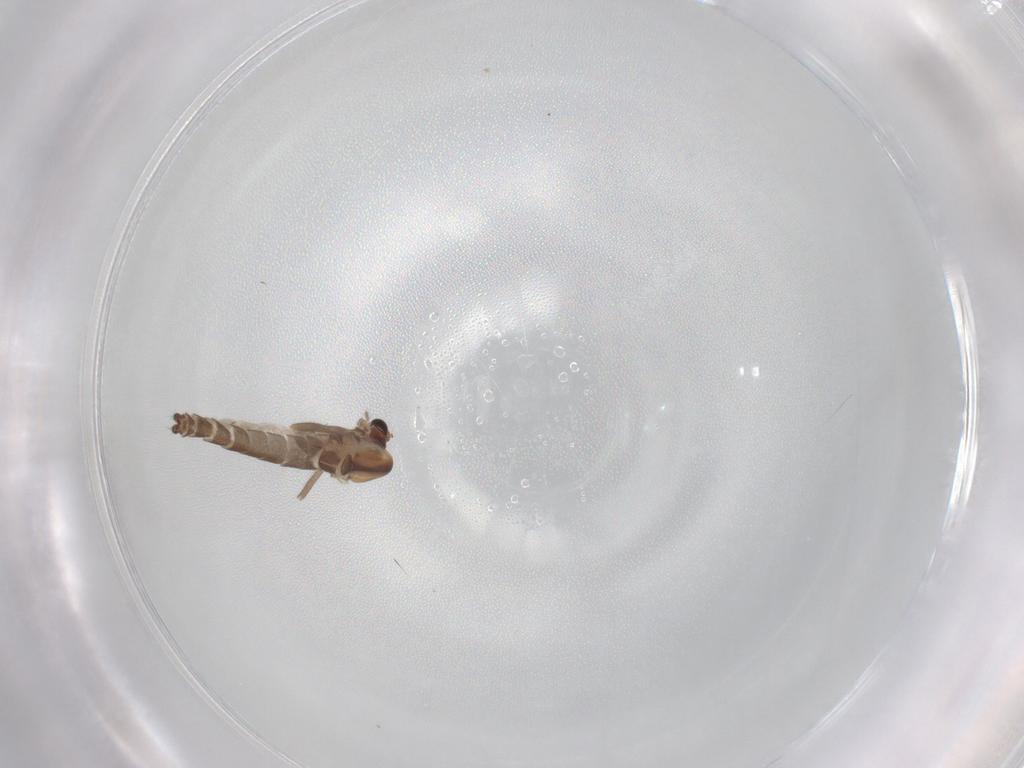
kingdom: Animalia
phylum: Arthropoda
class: Insecta
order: Diptera
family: Chironomidae
